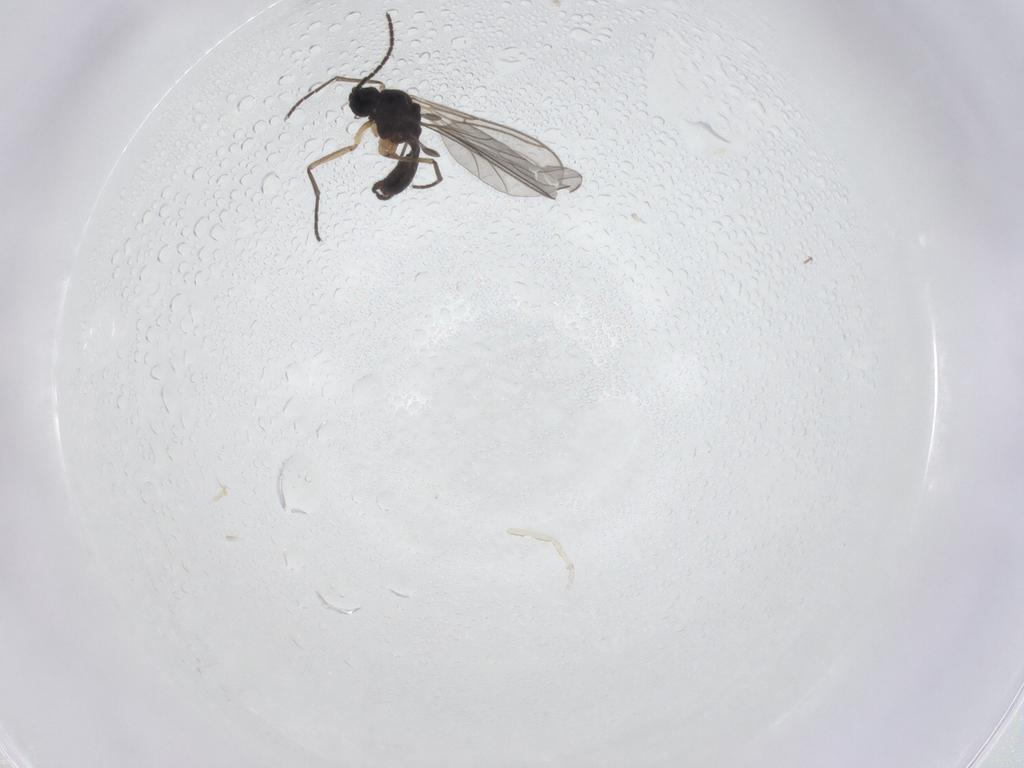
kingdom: Animalia
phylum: Arthropoda
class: Insecta
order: Diptera
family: Sciaridae
